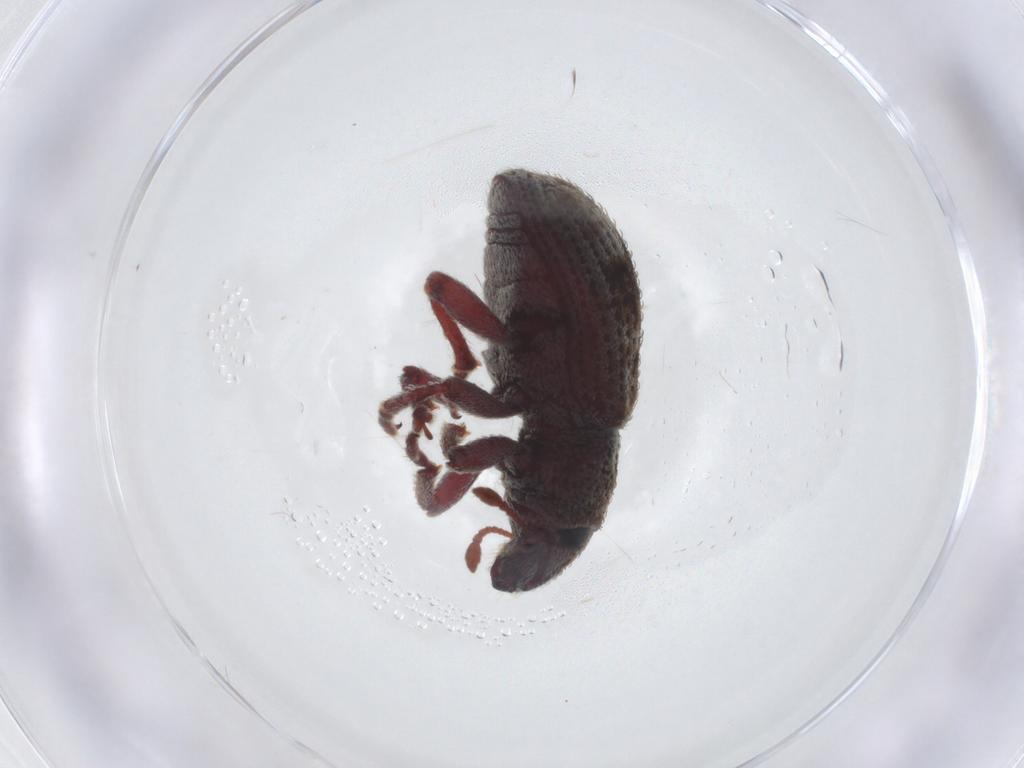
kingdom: Animalia
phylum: Arthropoda
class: Insecta
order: Coleoptera
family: Curculionidae
